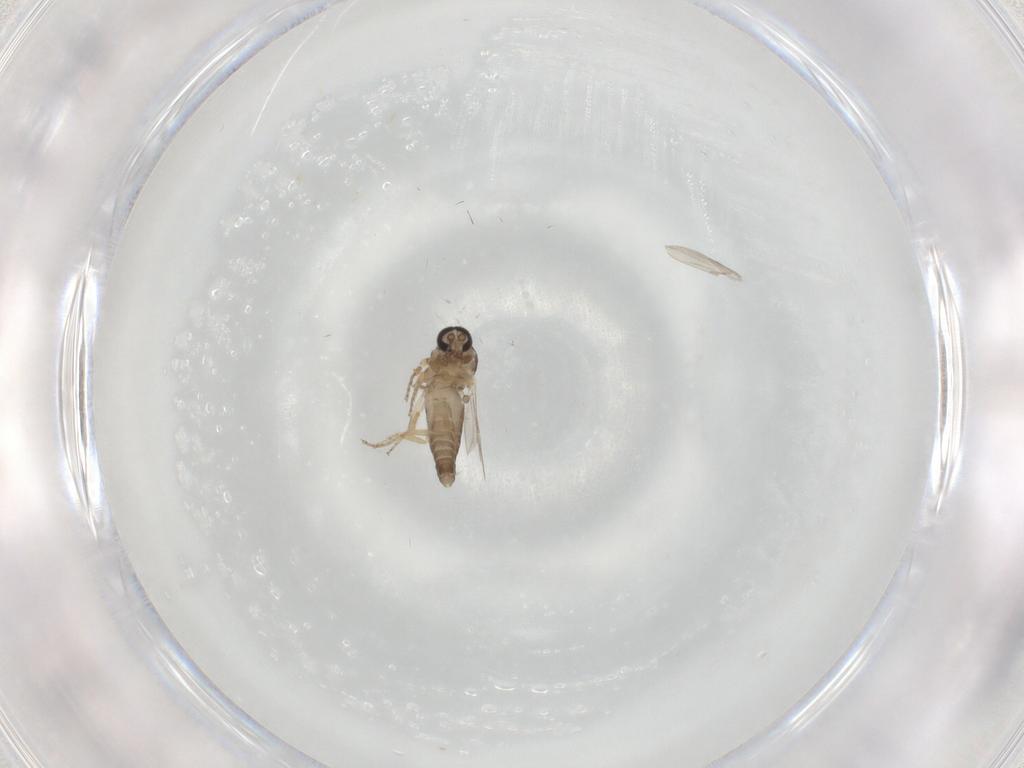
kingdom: Animalia
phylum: Arthropoda
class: Insecta
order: Diptera
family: Ceratopogonidae
